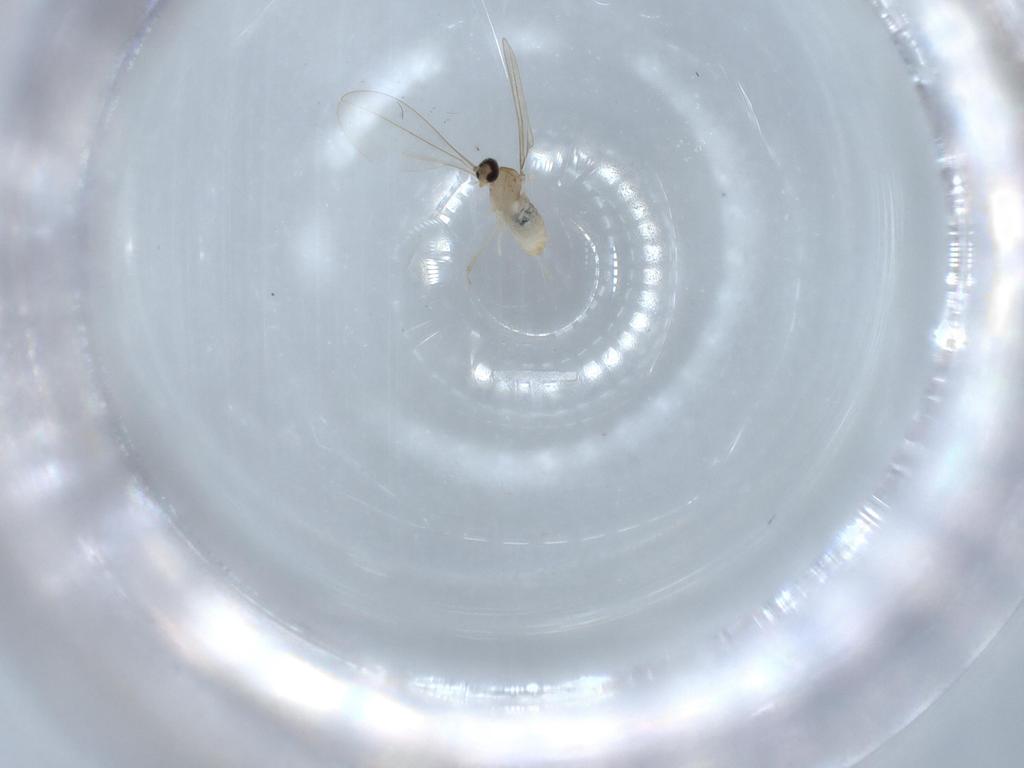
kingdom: Animalia
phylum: Arthropoda
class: Insecta
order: Diptera
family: Cecidomyiidae
